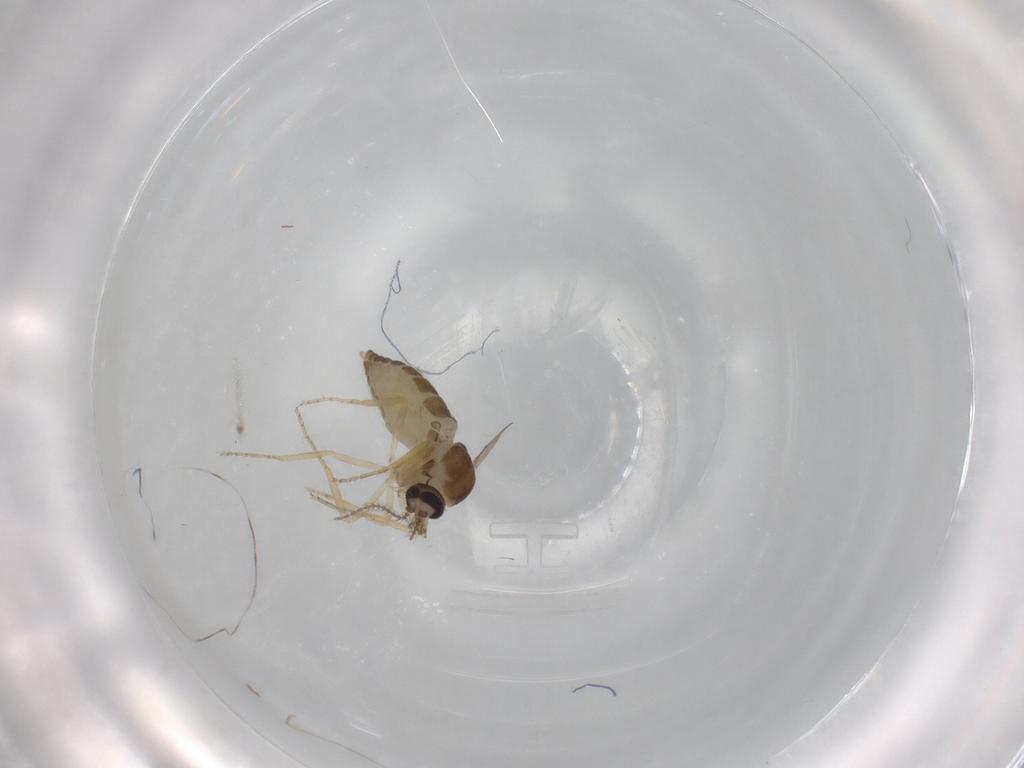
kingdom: Animalia
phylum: Arthropoda
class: Insecta
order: Diptera
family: Ceratopogonidae
